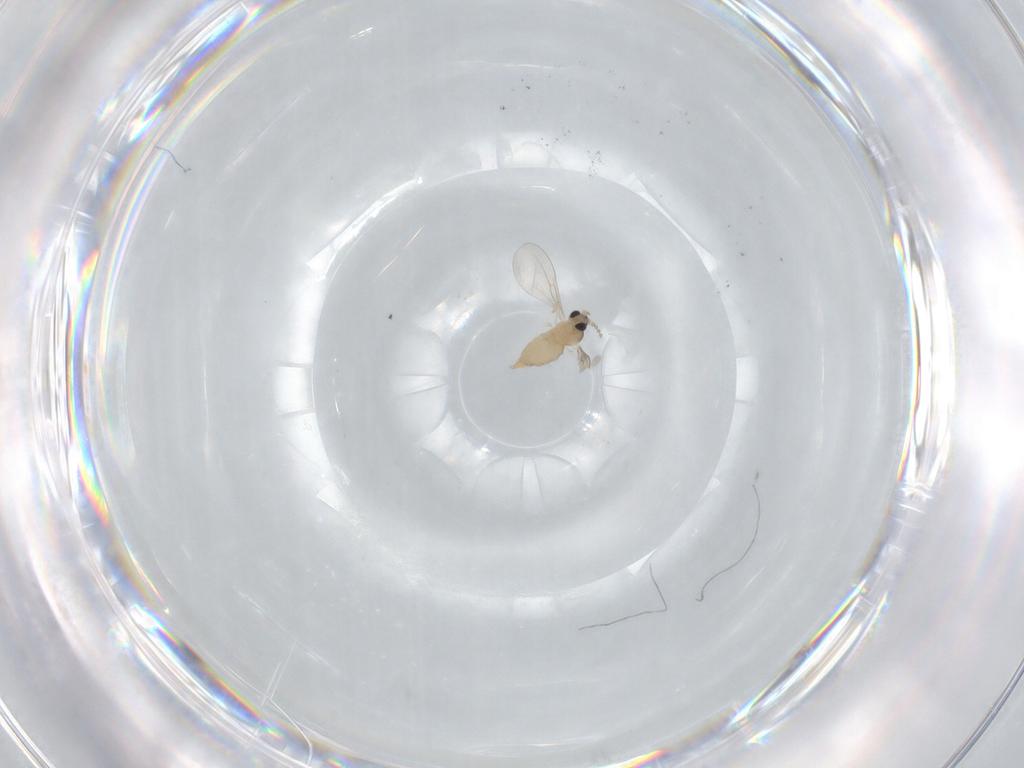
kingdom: Animalia
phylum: Arthropoda
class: Insecta
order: Diptera
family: Cecidomyiidae
